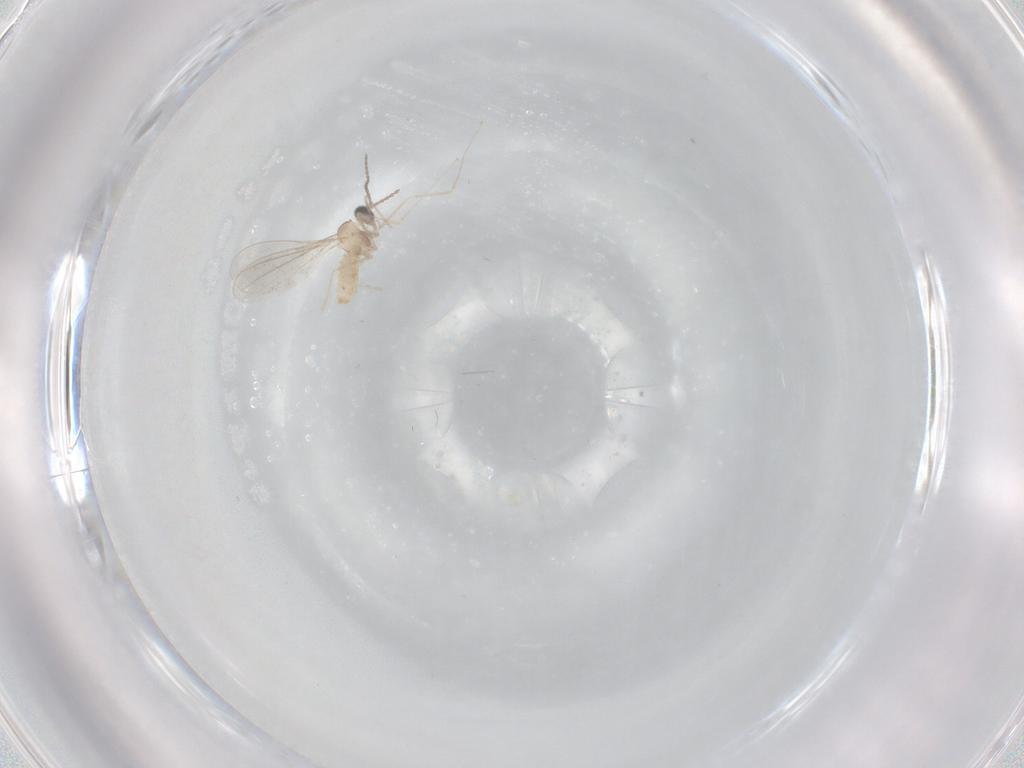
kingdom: Animalia
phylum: Arthropoda
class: Insecta
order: Diptera
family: Cecidomyiidae
